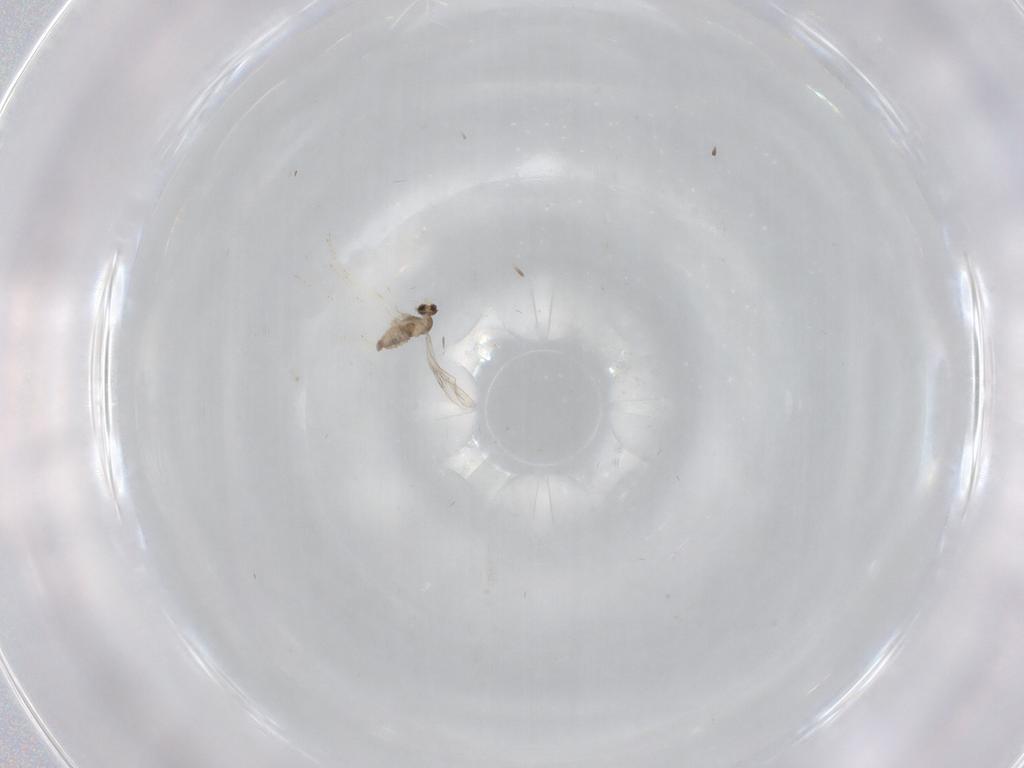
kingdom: Animalia
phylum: Arthropoda
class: Insecta
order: Diptera
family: Cecidomyiidae
